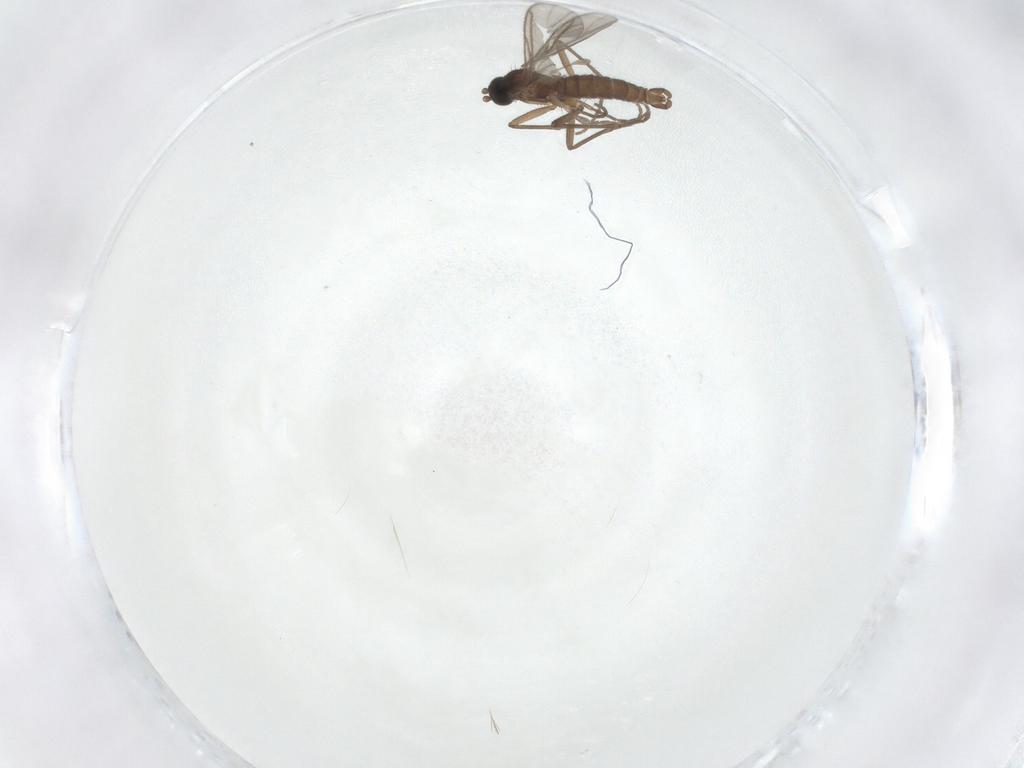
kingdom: Animalia
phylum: Arthropoda
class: Insecta
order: Diptera
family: Sciaridae
